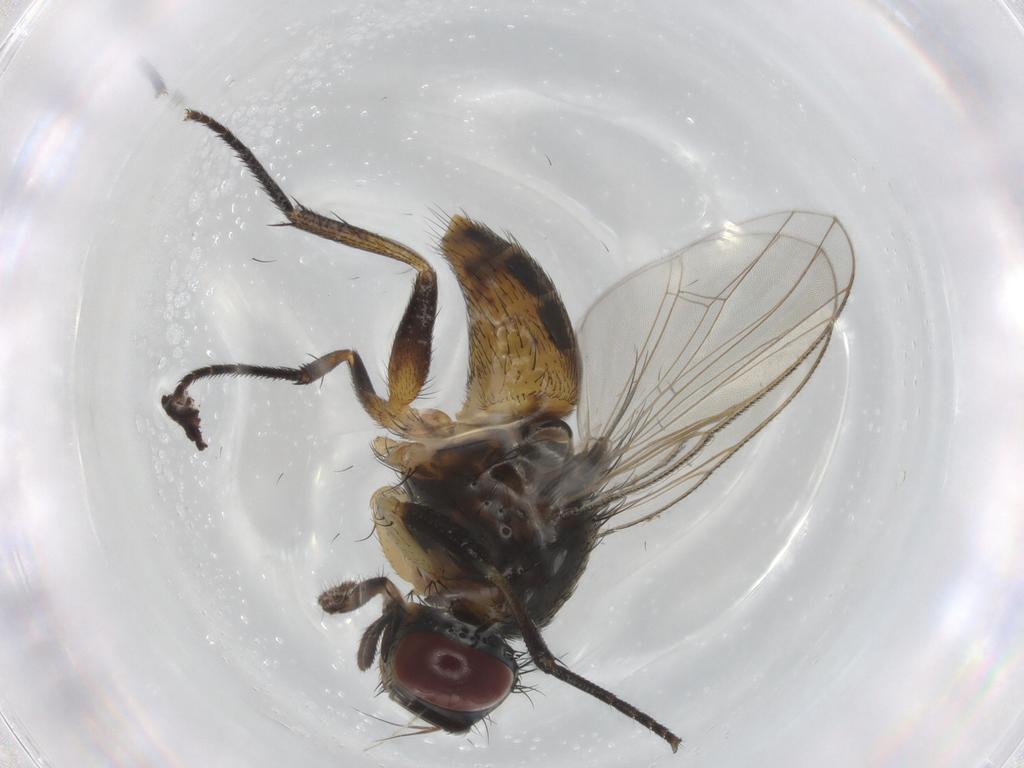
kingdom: Animalia
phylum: Arthropoda
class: Insecta
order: Diptera
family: Muscidae
